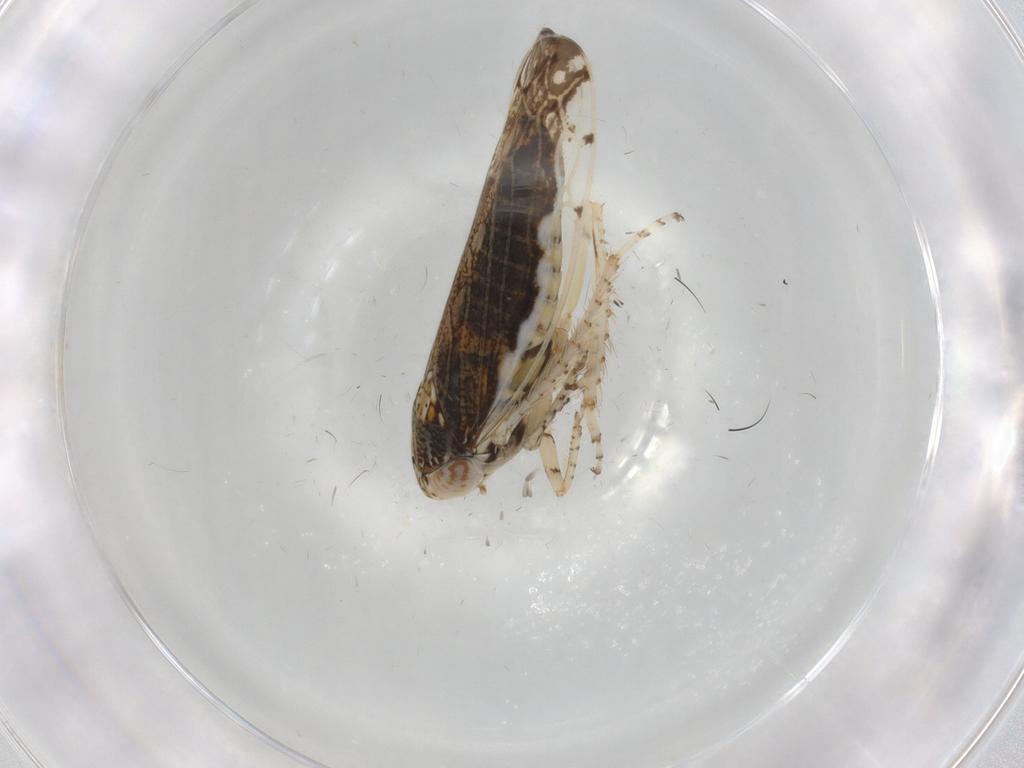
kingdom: Animalia
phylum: Arthropoda
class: Insecta
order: Hemiptera
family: Cicadellidae
